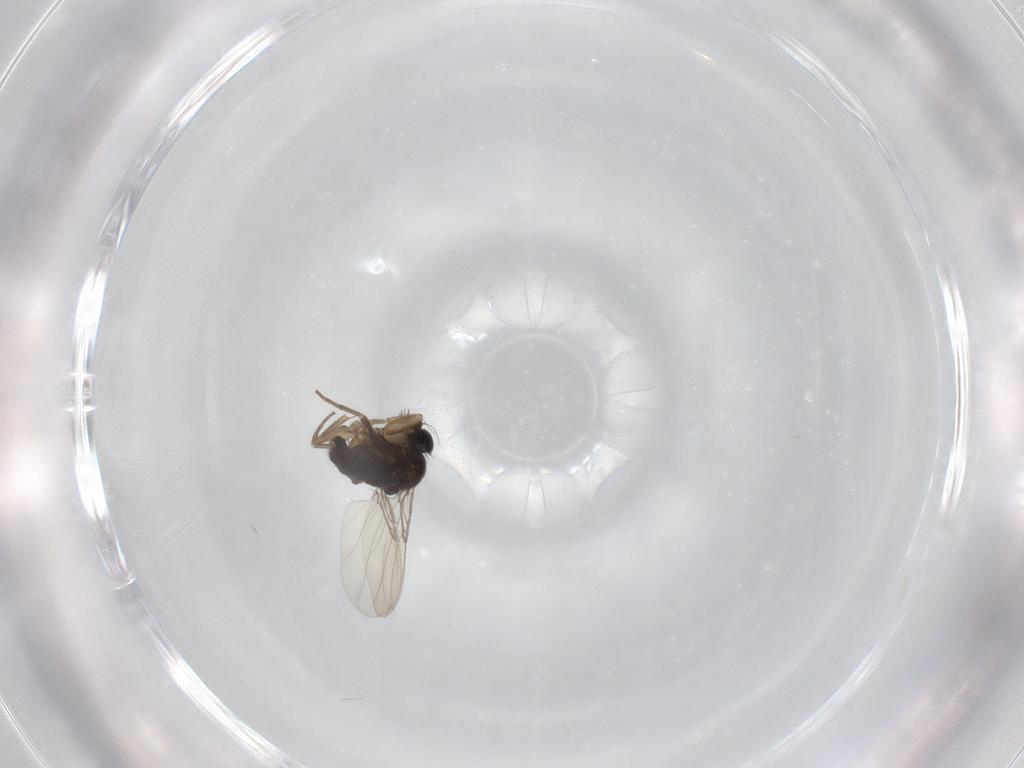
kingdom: Animalia
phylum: Arthropoda
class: Insecta
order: Diptera
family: Phoridae
